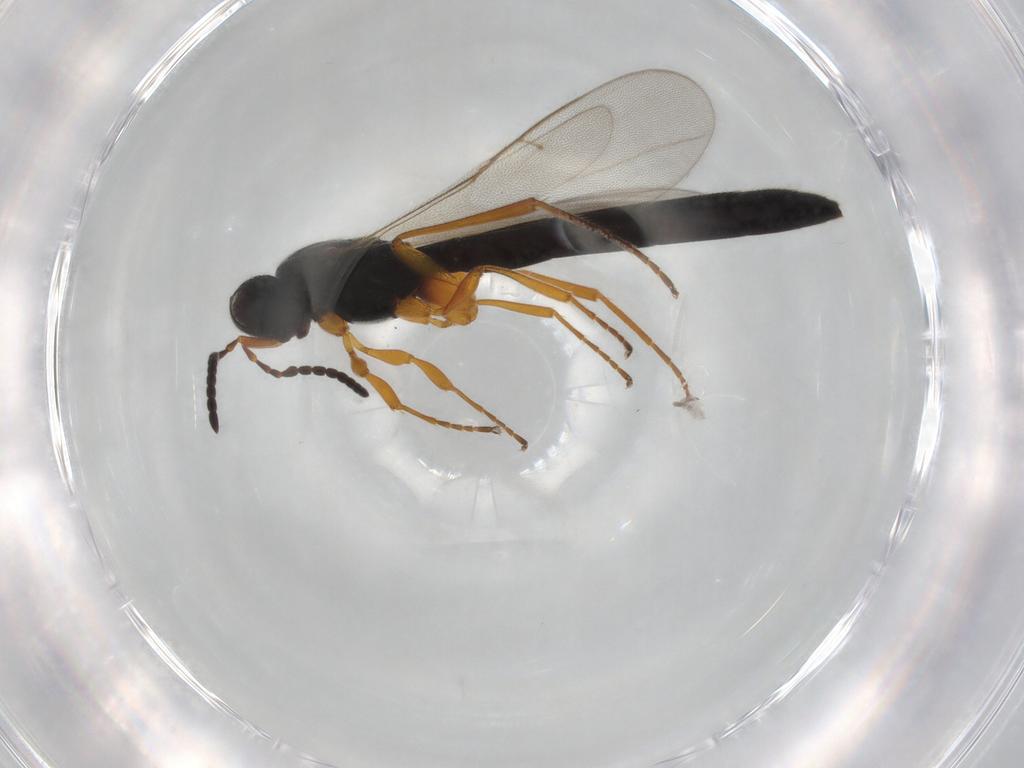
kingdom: Animalia
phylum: Arthropoda
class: Insecta
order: Hymenoptera
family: Scelionidae
